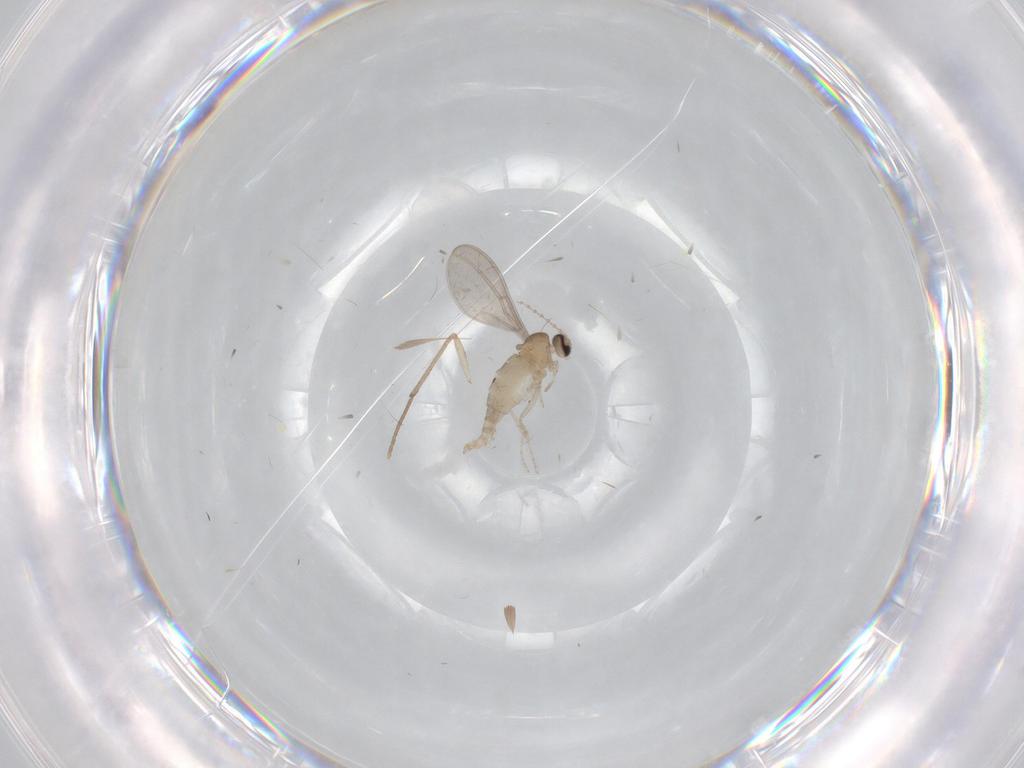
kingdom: Animalia
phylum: Arthropoda
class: Insecta
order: Diptera
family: Cecidomyiidae
